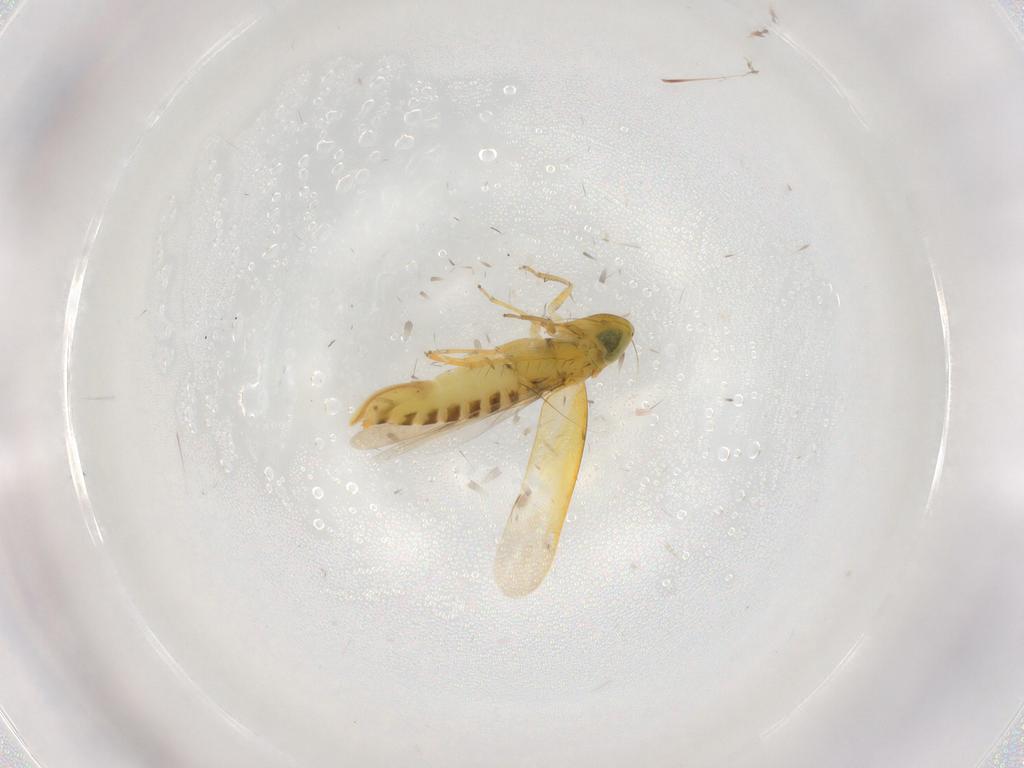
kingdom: Animalia
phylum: Arthropoda
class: Insecta
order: Hemiptera
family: Cicadellidae
